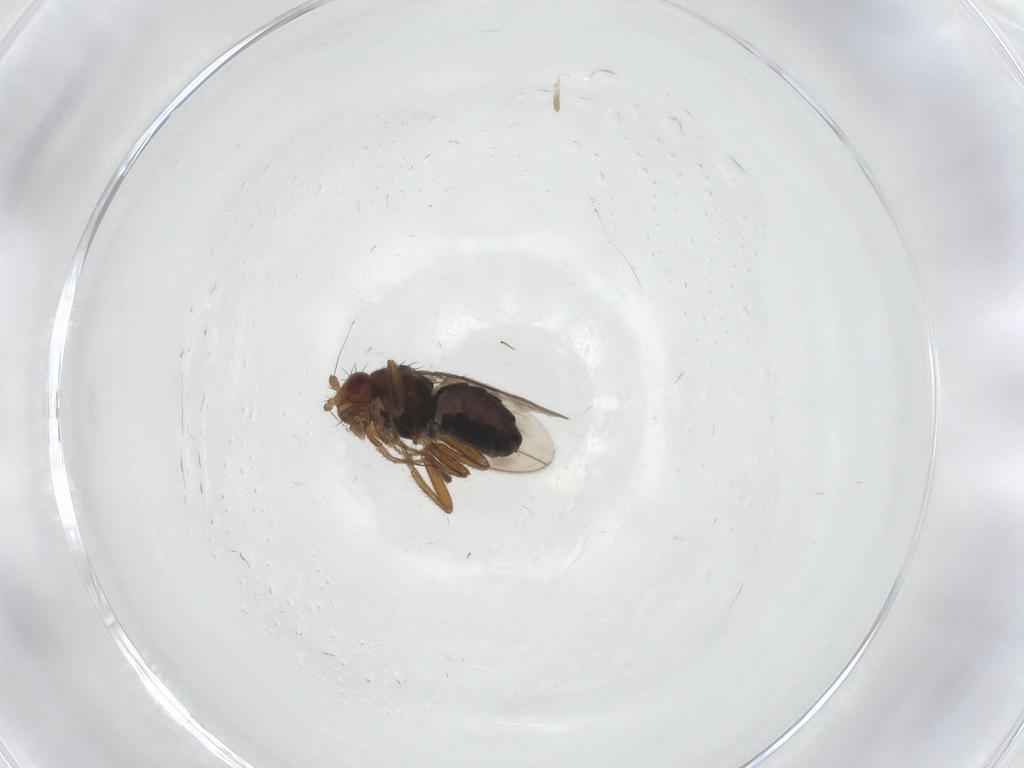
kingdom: Animalia
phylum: Arthropoda
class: Insecta
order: Diptera
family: Sphaeroceridae
